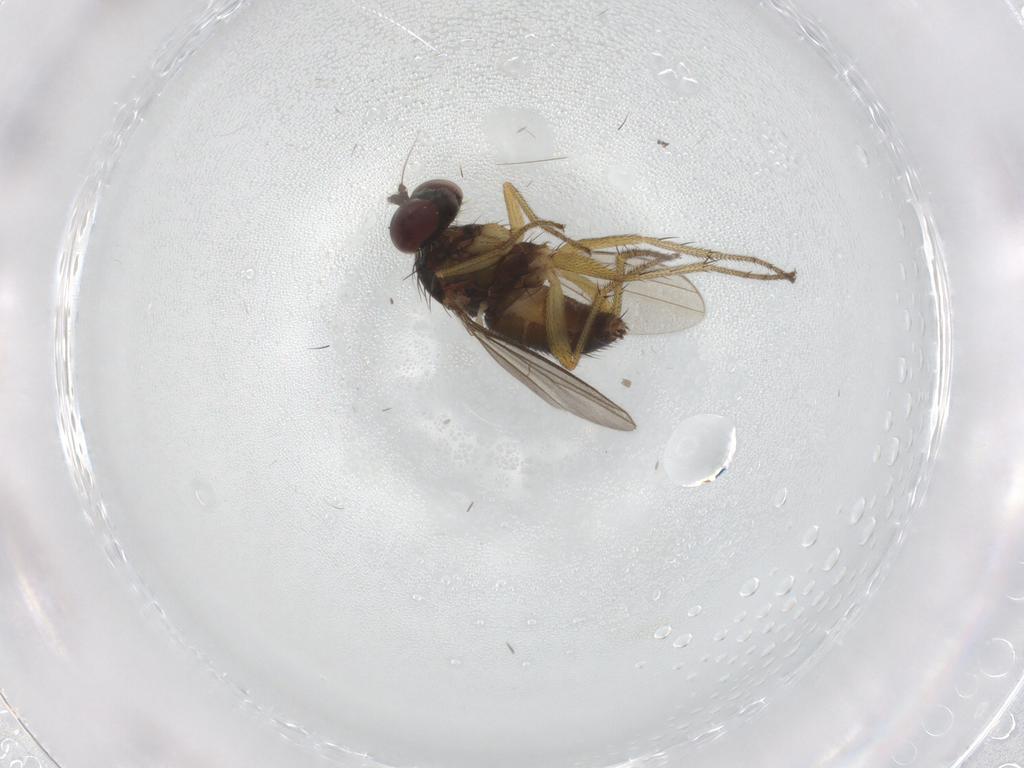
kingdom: Animalia
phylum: Arthropoda
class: Insecta
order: Diptera
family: Dolichopodidae
